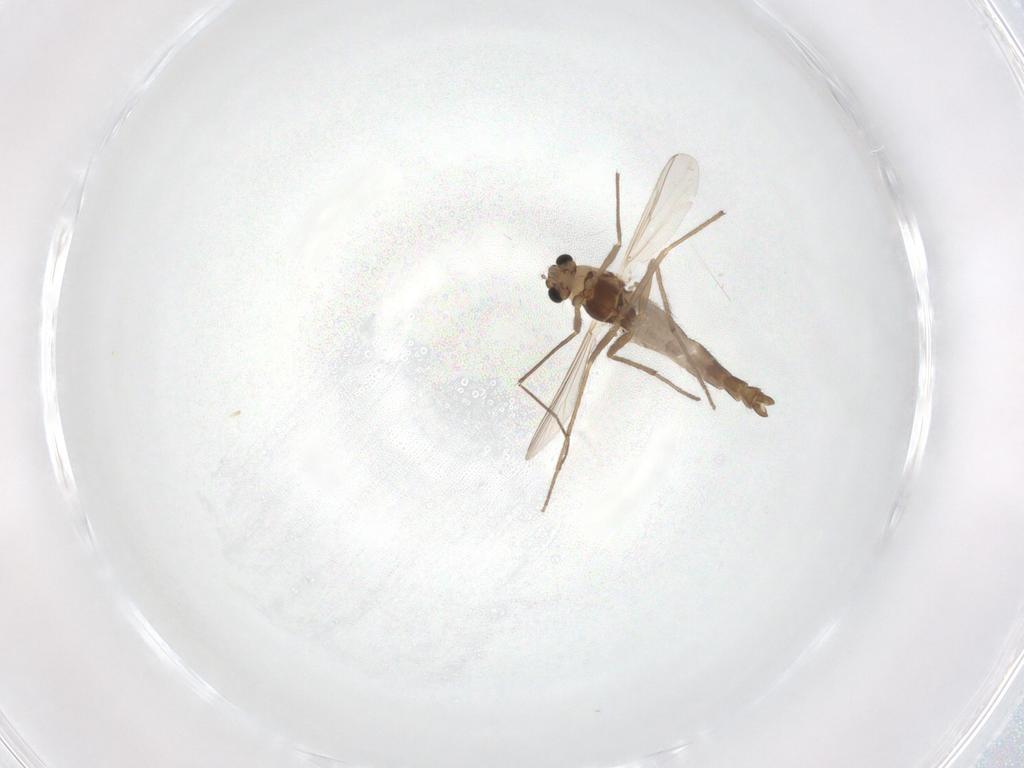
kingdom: Animalia
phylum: Arthropoda
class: Insecta
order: Diptera
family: Chironomidae
